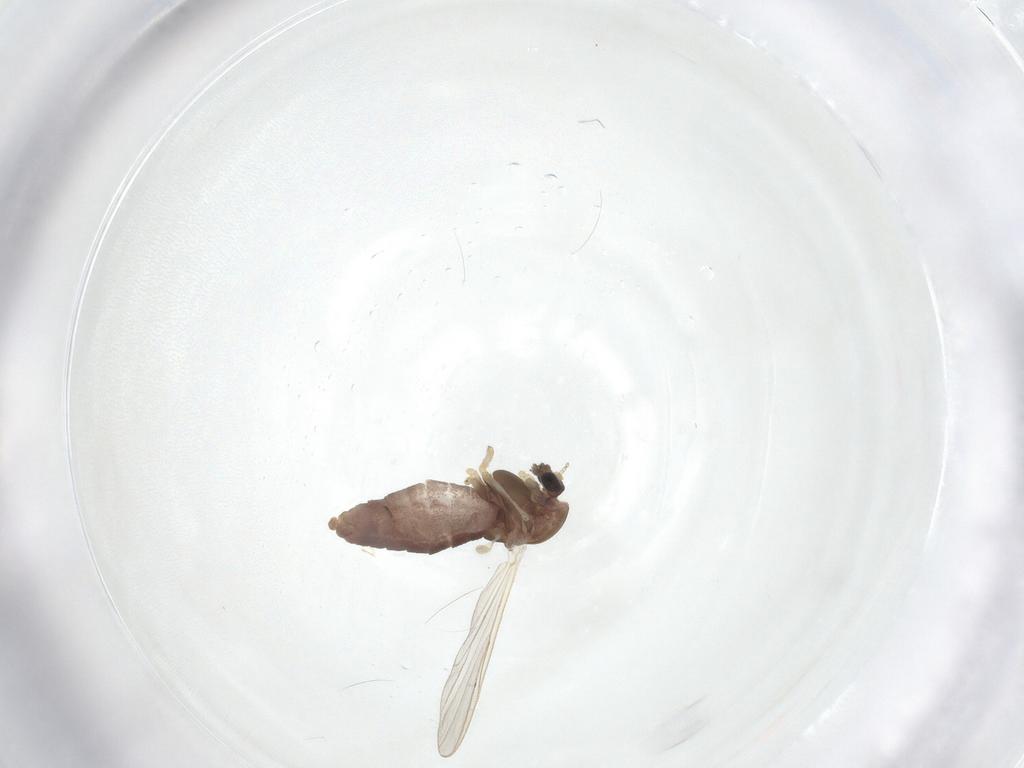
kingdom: Animalia
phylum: Arthropoda
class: Insecta
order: Diptera
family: Chironomidae
